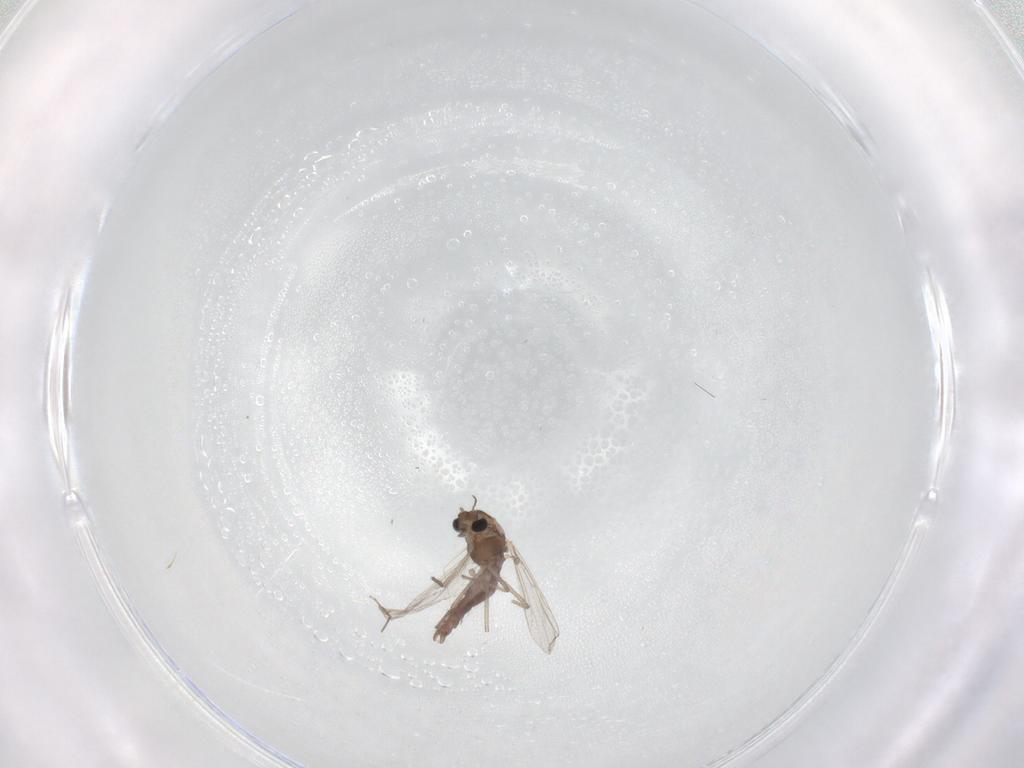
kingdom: Animalia
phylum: Arthropoda
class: Insecta
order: Diptera
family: Chironomidae
